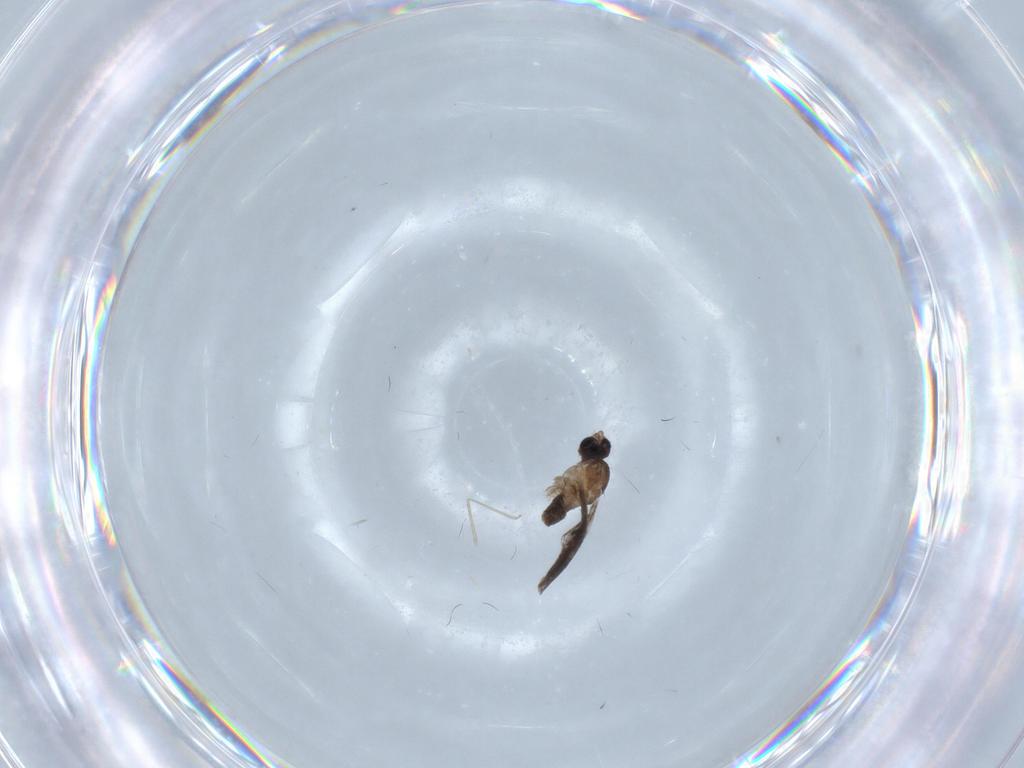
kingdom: Animalia
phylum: Arthropoda
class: Insecta
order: Diptera
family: Cecidomyiidae
